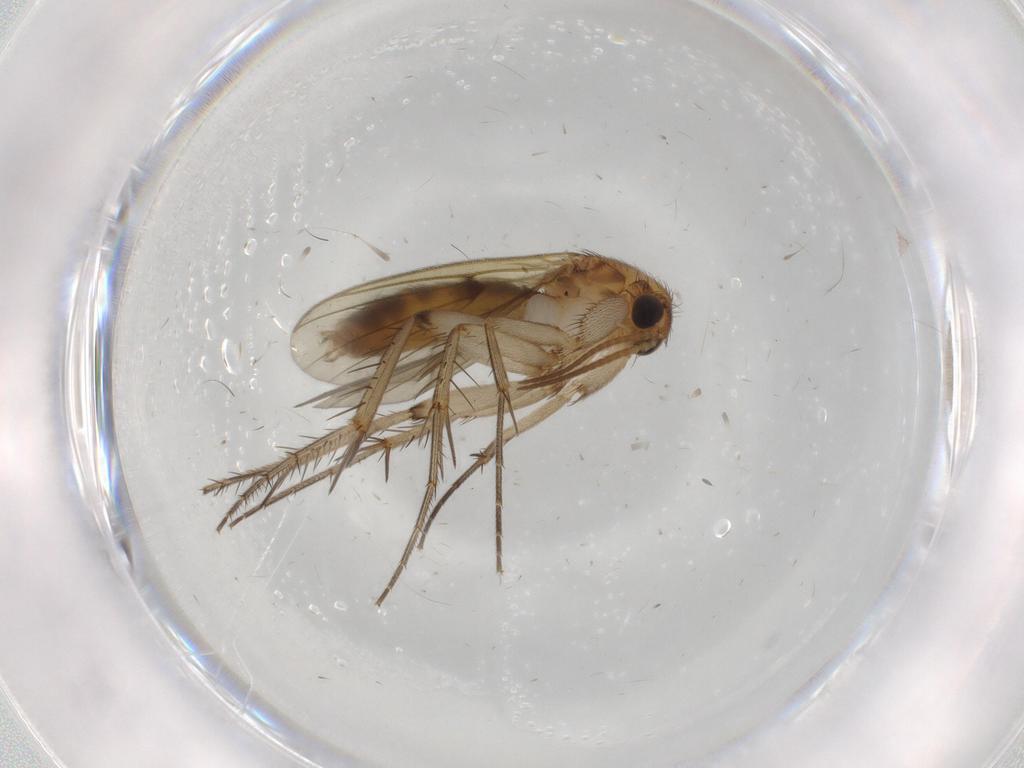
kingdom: Animalia
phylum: Arthropoda
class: Insecta
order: Diptera
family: Mycetophilidae
